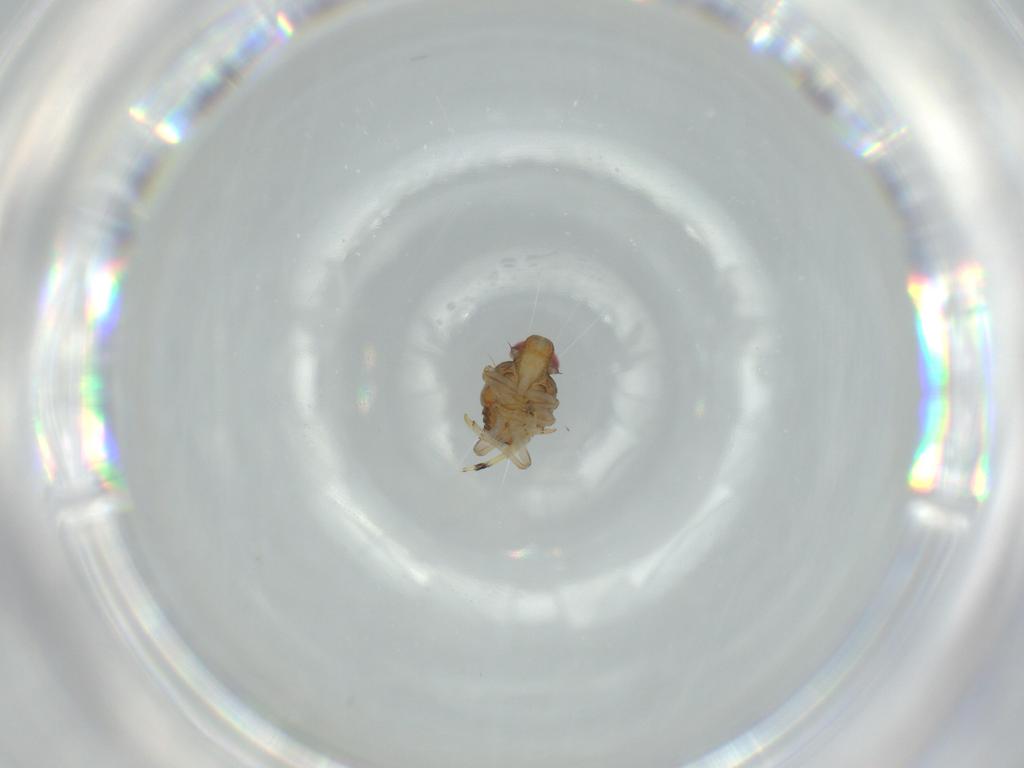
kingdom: Animalia
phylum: Arthropoda
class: Insecta
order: Hemiptera
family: Issidae
